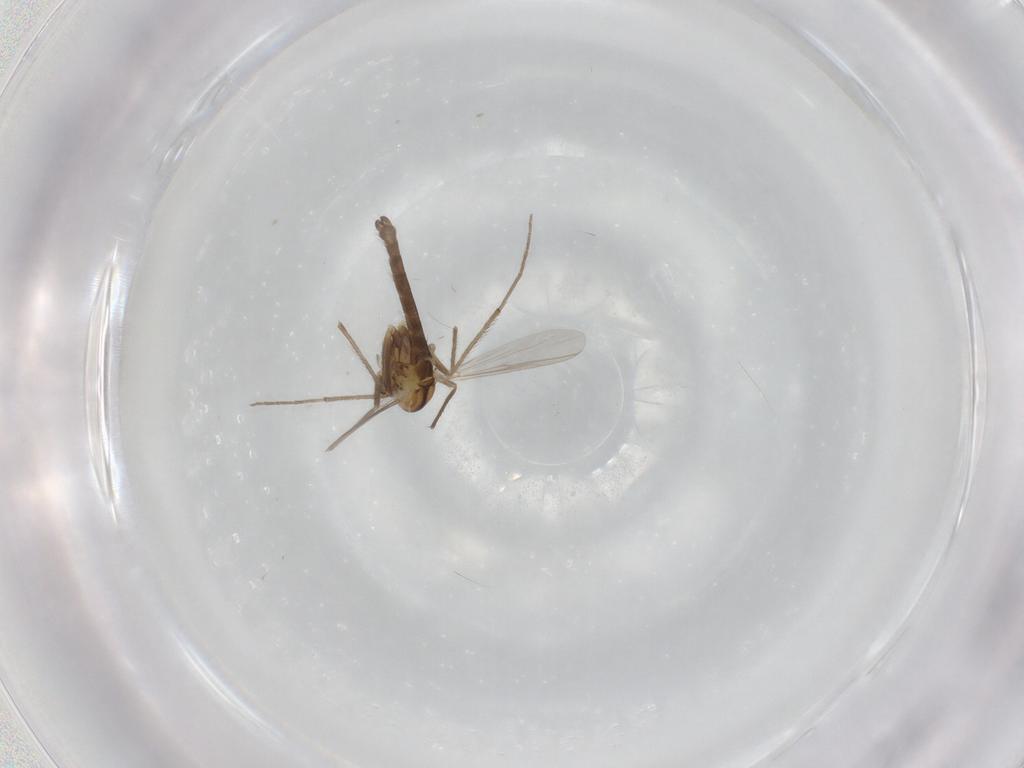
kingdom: Animalia
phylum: Arthropoda
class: Insecta
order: Diptera
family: Chironomidae
